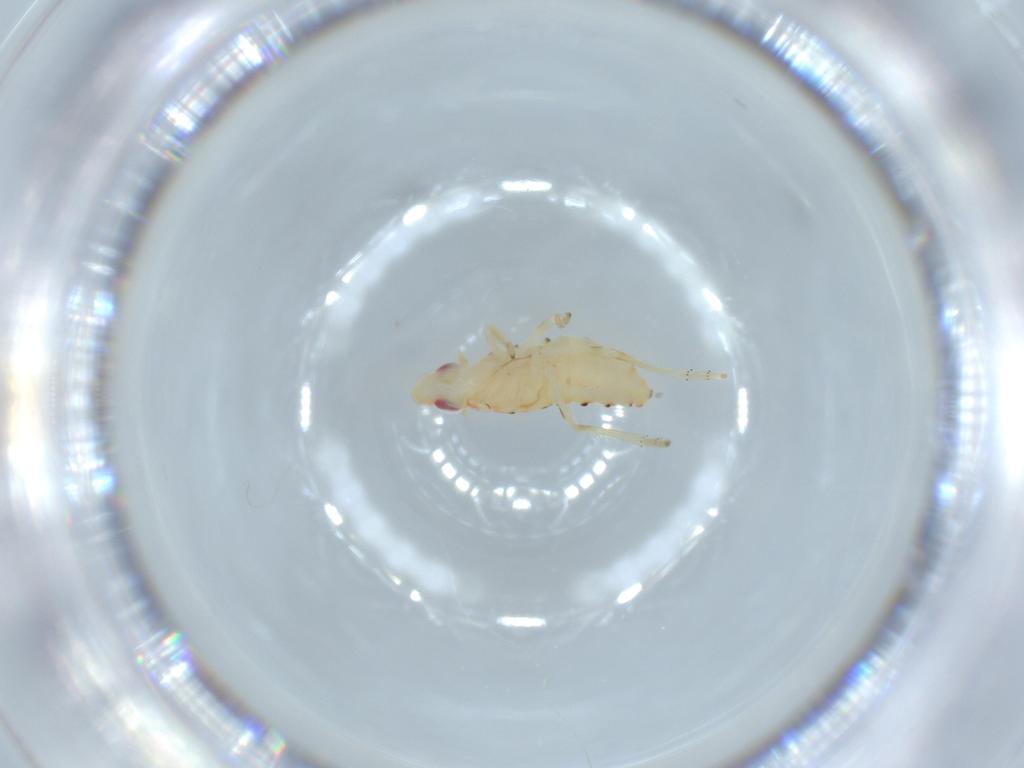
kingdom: Animalia
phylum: Arthropoda
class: Insecta
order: Hemiptera
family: Tropiduchidae
